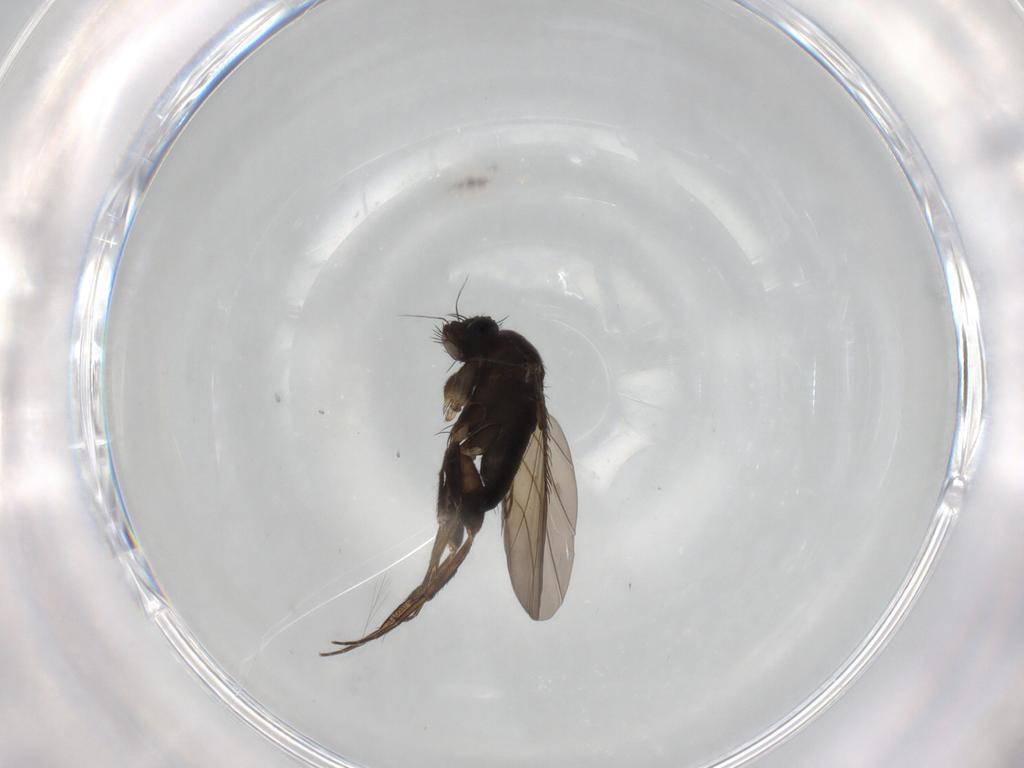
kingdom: Animalia
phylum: Arthropoda
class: Insecta
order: Diptera
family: Phoridae
